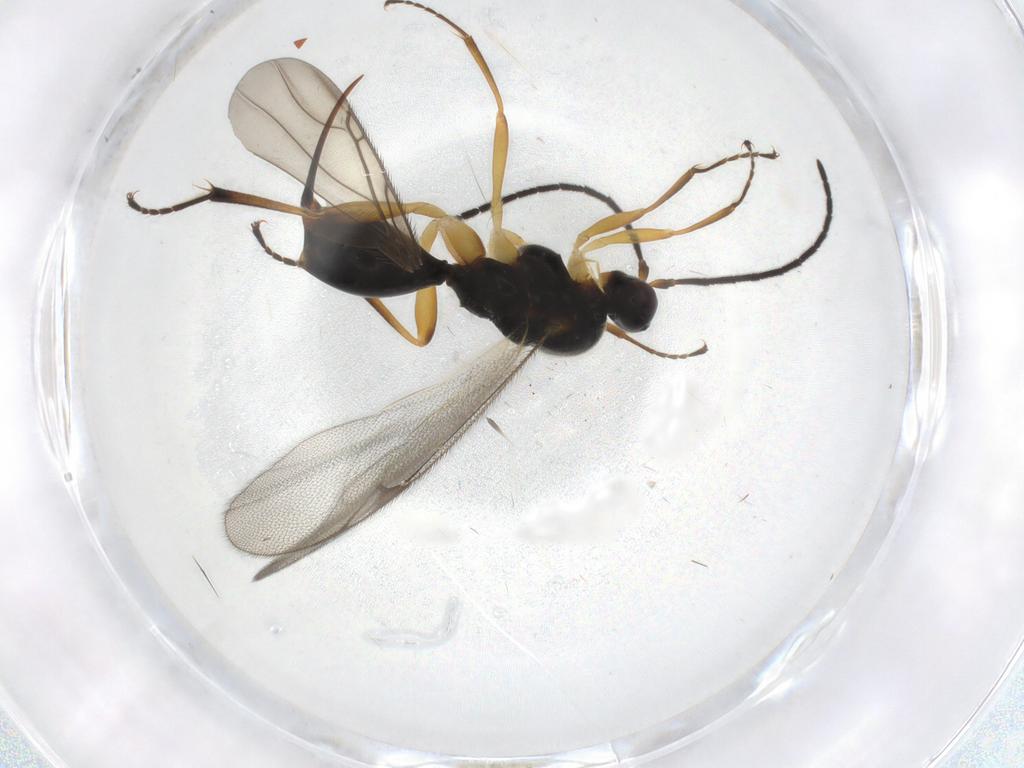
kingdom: Animalia
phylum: Arthropoda
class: Insecta
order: Hymenoptera
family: Proctotrupidae
